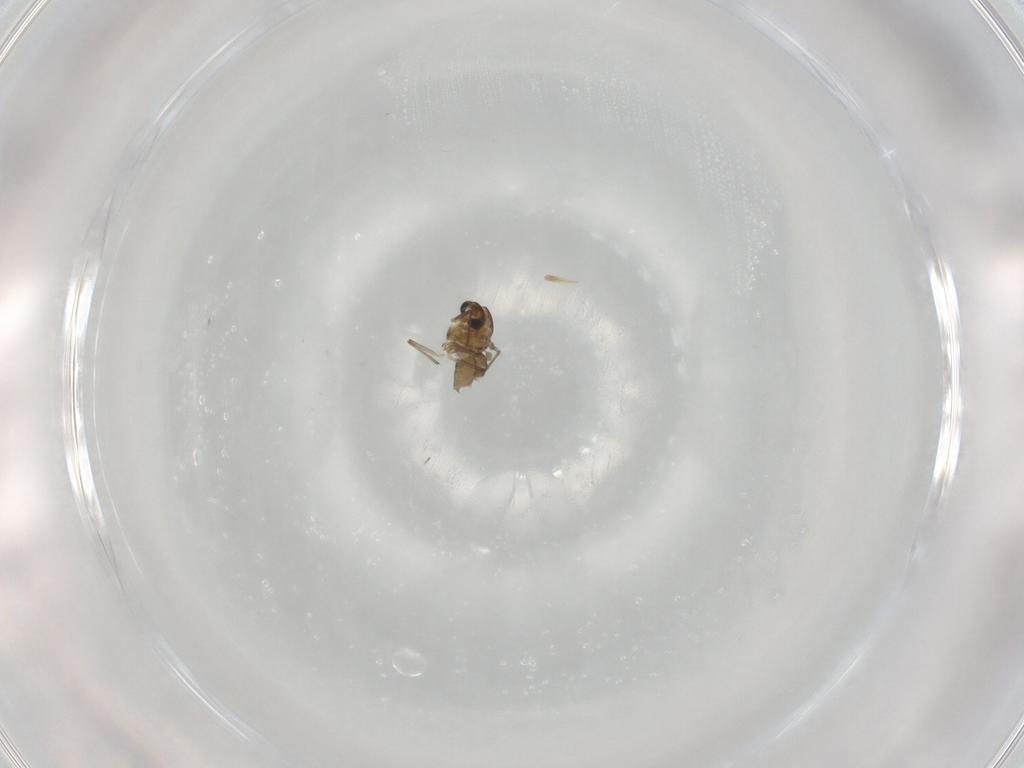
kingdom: Animalia
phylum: Arthropoda
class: Insecta
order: Diptera
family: Chironomidae
